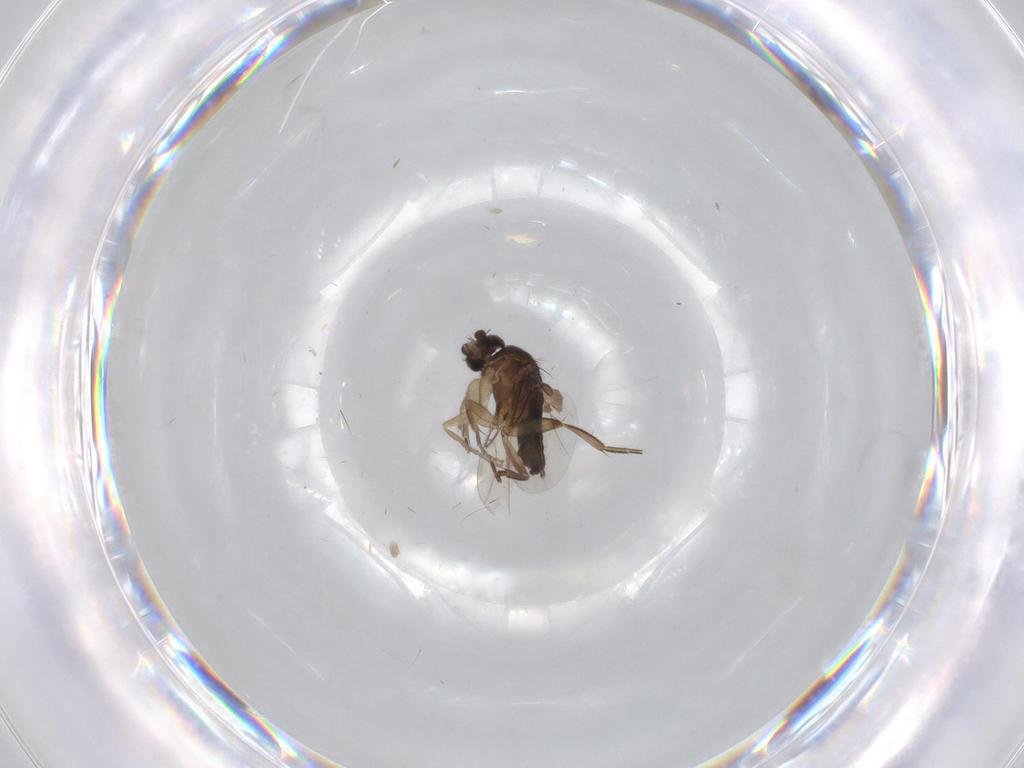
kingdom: Animalia
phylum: Arthropoda
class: Insecta
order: Diptera
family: Phoridae
